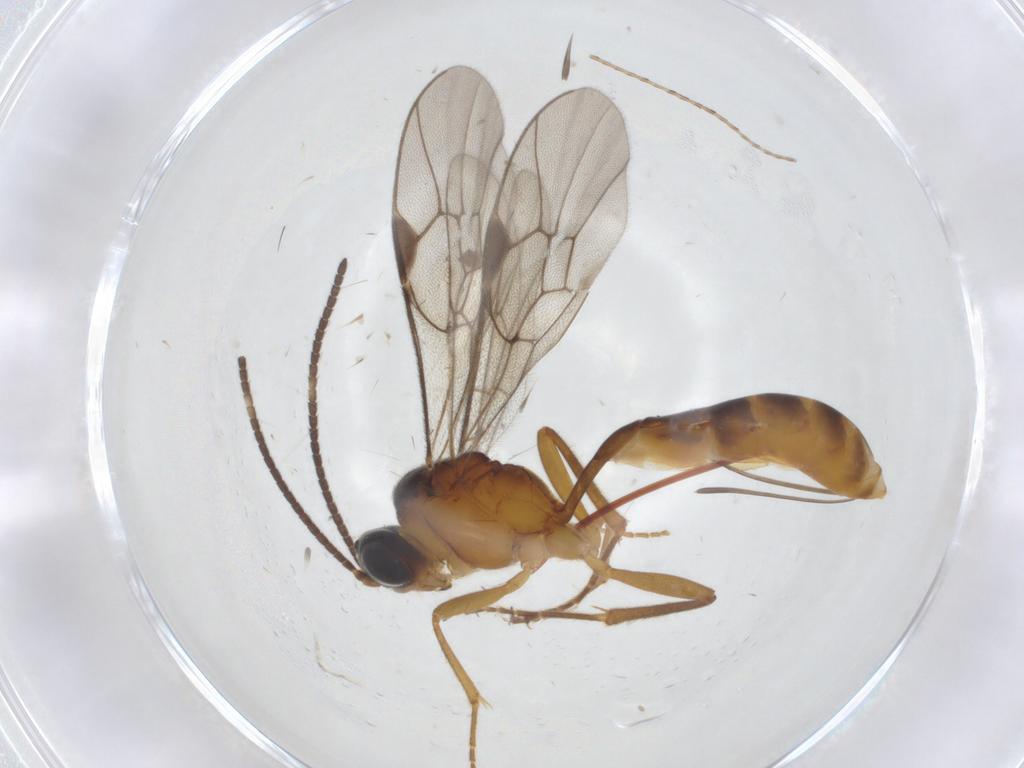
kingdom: Animalia
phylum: Arthropoda
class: Insecta
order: Hymenoptera
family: Ichneumonidae
